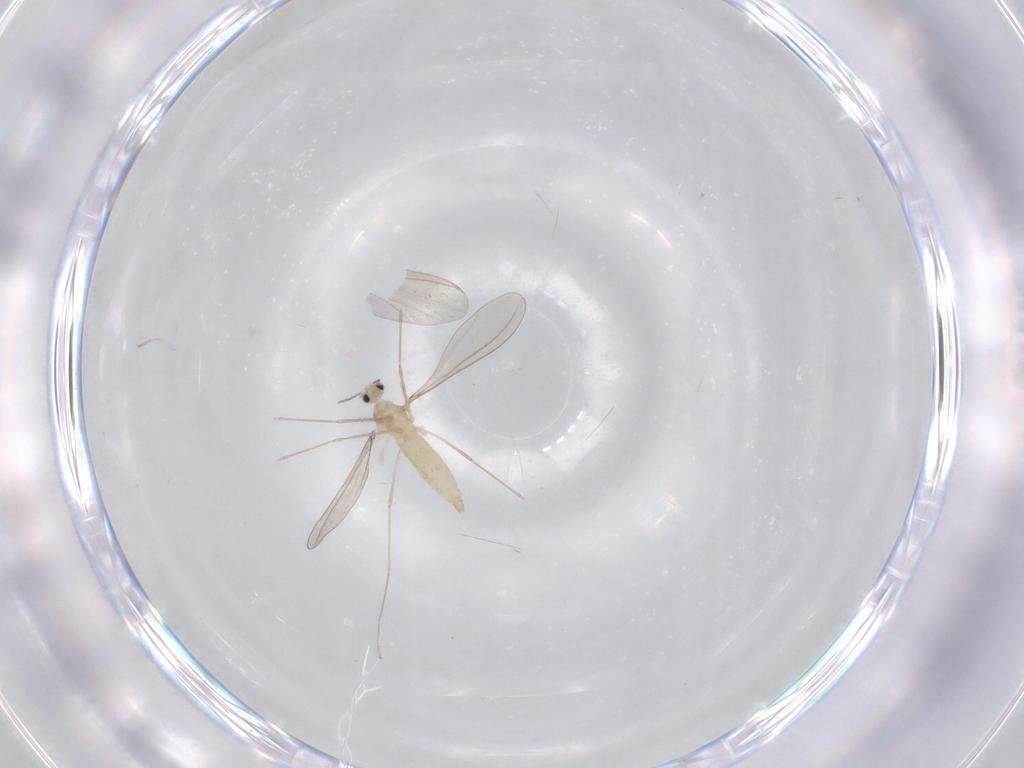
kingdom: Animalia
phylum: Arthropoda
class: Insecta
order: Diptera
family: Cecidomyiidae
